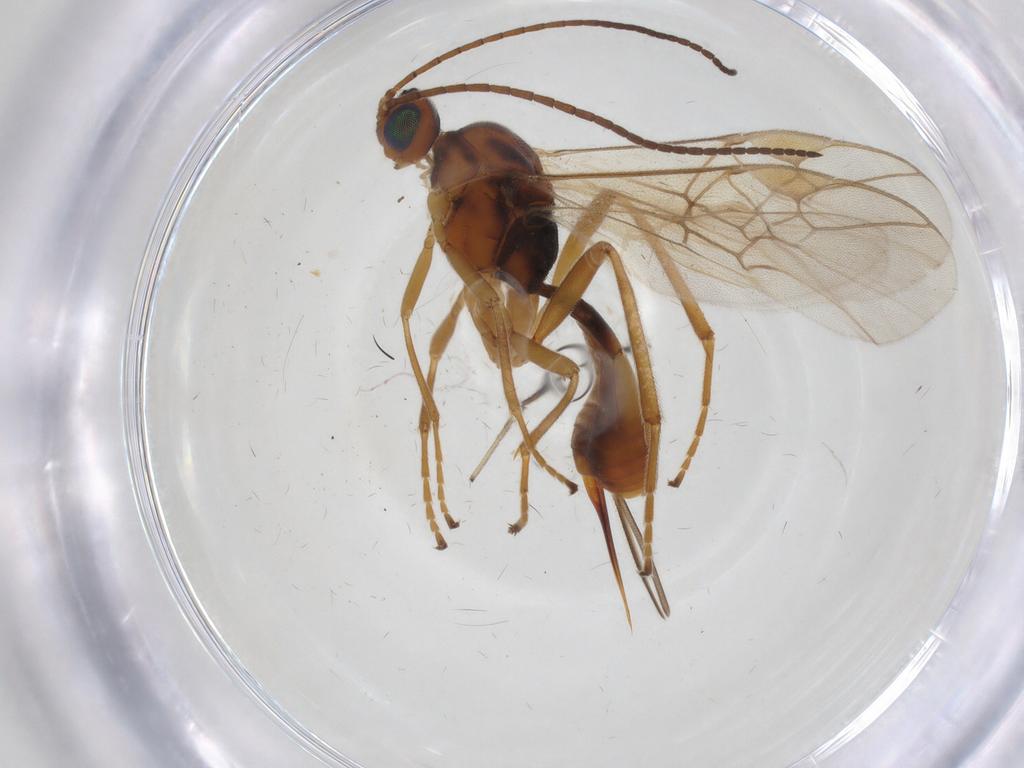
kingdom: Animalia
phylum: Arthropoda
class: Insecta
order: Hymenoptera
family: Braconidae
